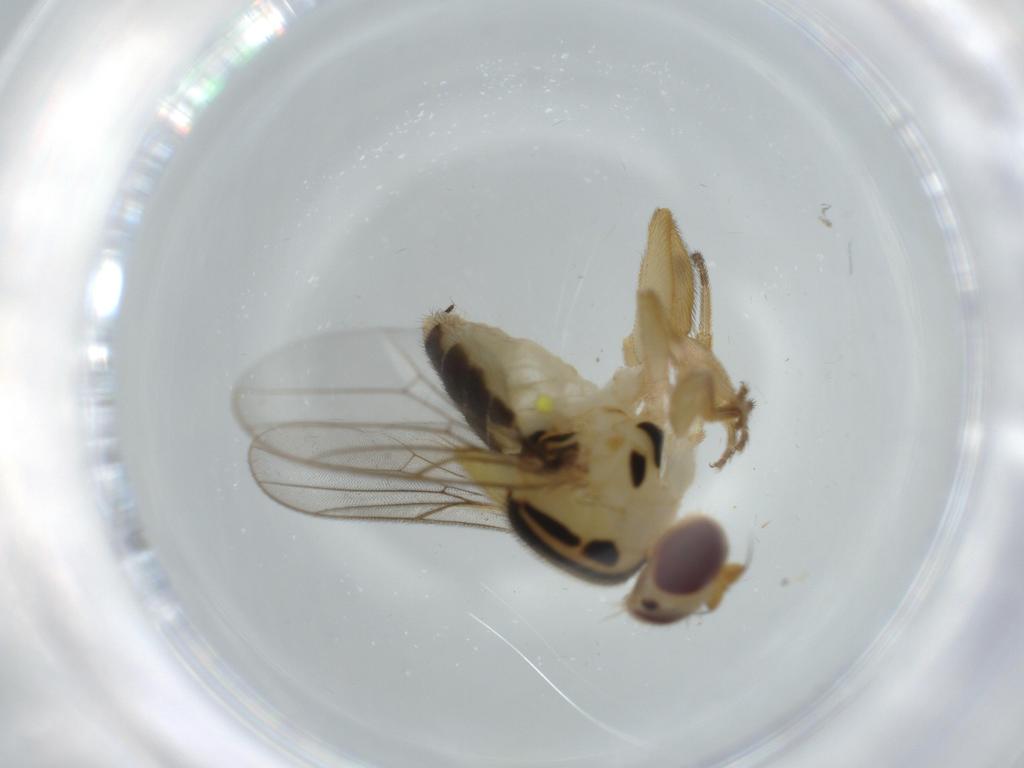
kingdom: Animalia
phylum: Arthropoda
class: Insecta
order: Diptera
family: Chloropidae
